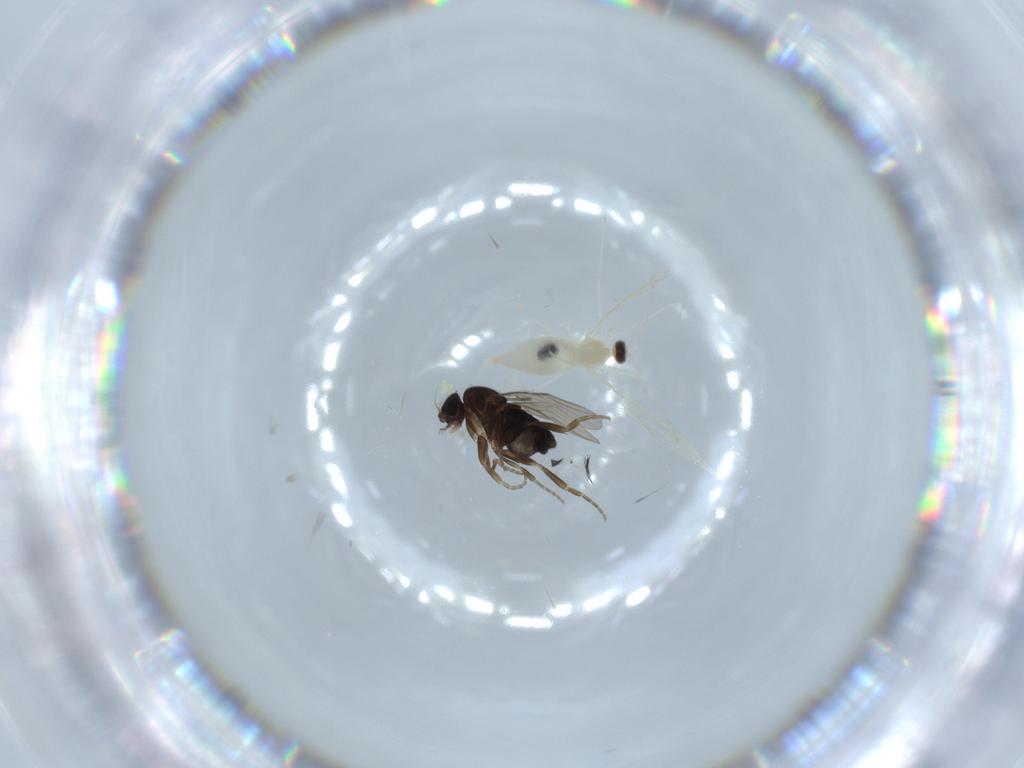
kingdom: Animalia
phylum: Arthropoda
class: Insecta
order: Diptera
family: Phoridae
